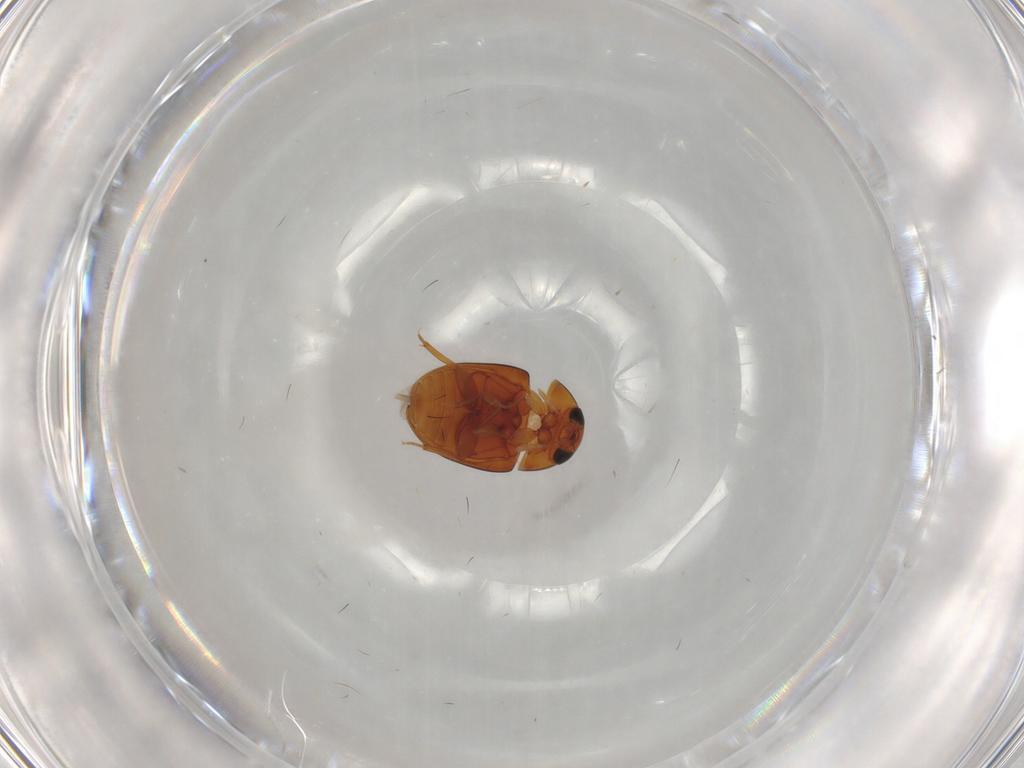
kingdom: Animalia
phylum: Arthropoda
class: Insecta
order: Coleoptera
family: Phalacridae
